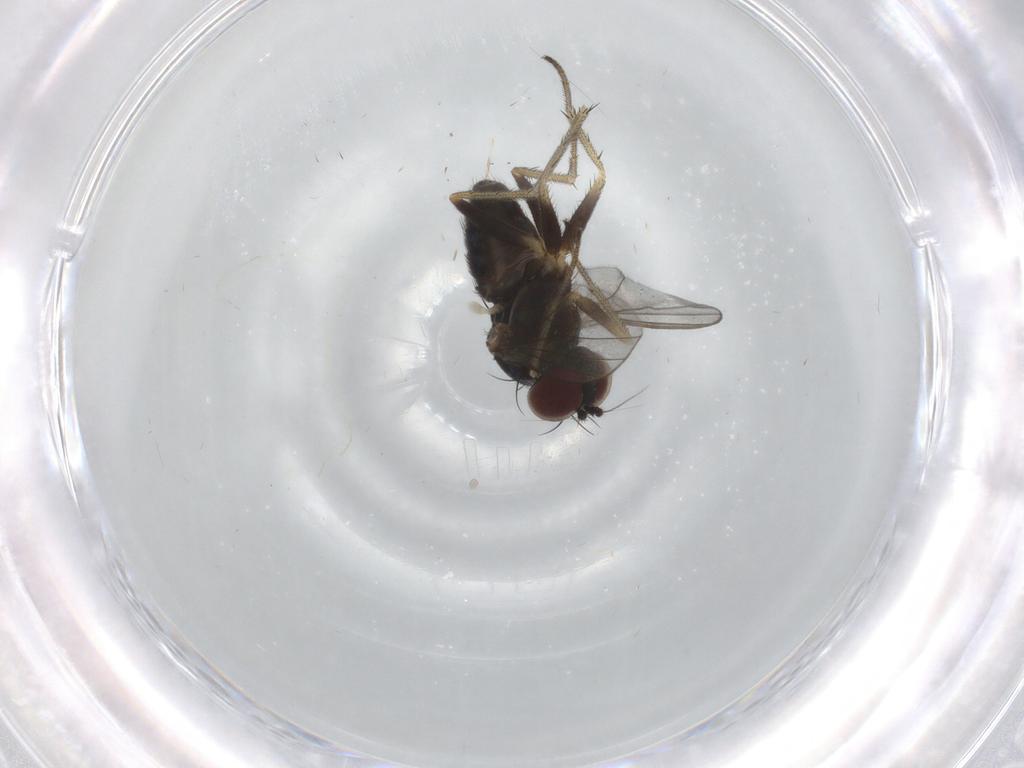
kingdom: Animalia
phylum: Arthropoda
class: Insecta
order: Diptera
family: Dolichopodidae
